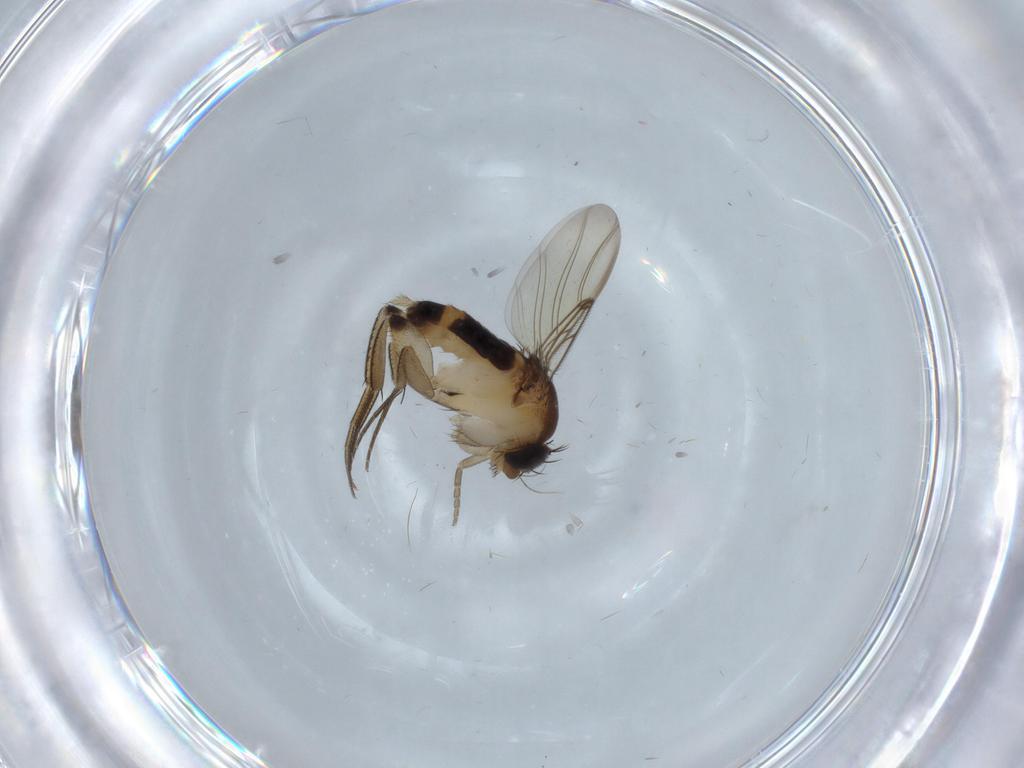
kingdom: Animalia
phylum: Arthropoda
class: Insecta
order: Diptera
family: Phoridae
